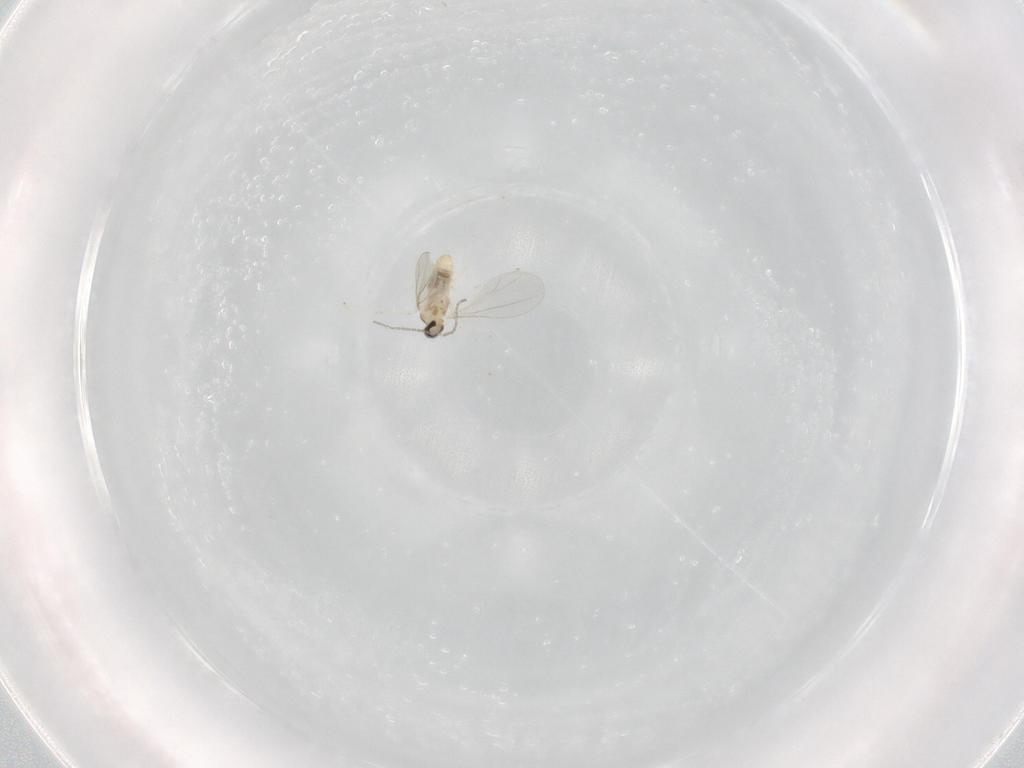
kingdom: Animalia
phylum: Arthropoda
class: Insecta
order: Diptera
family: Cecidomyiidae
